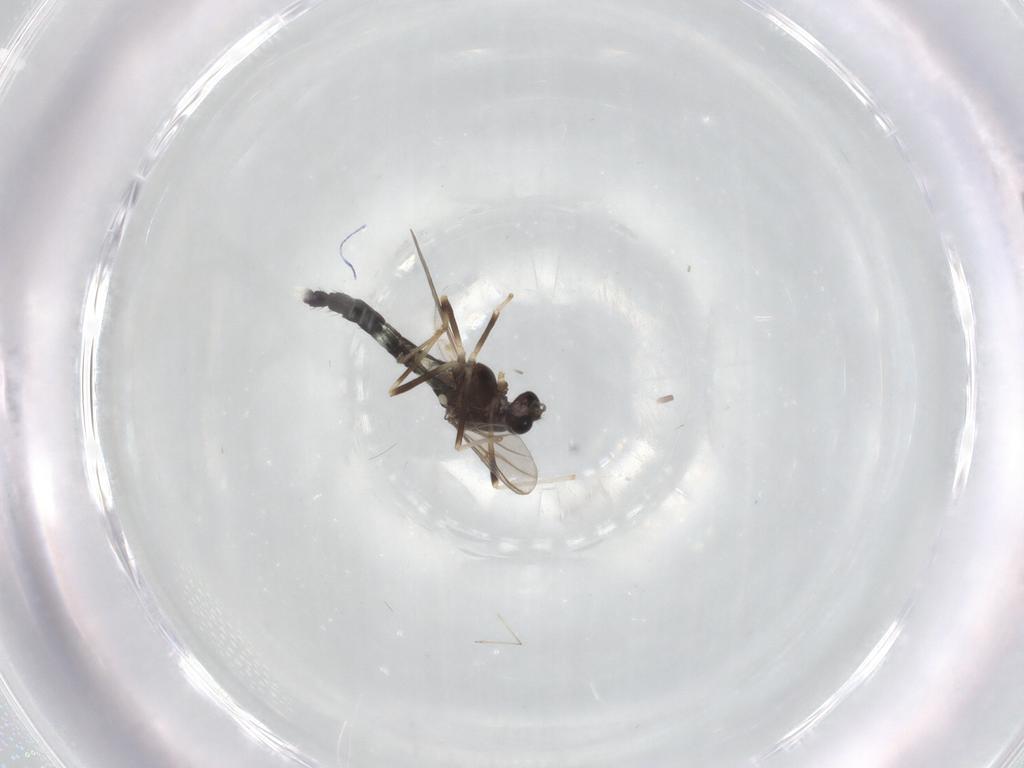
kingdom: Animalia
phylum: Arthropoda
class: Insecta
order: Diptera
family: Chironomidae
